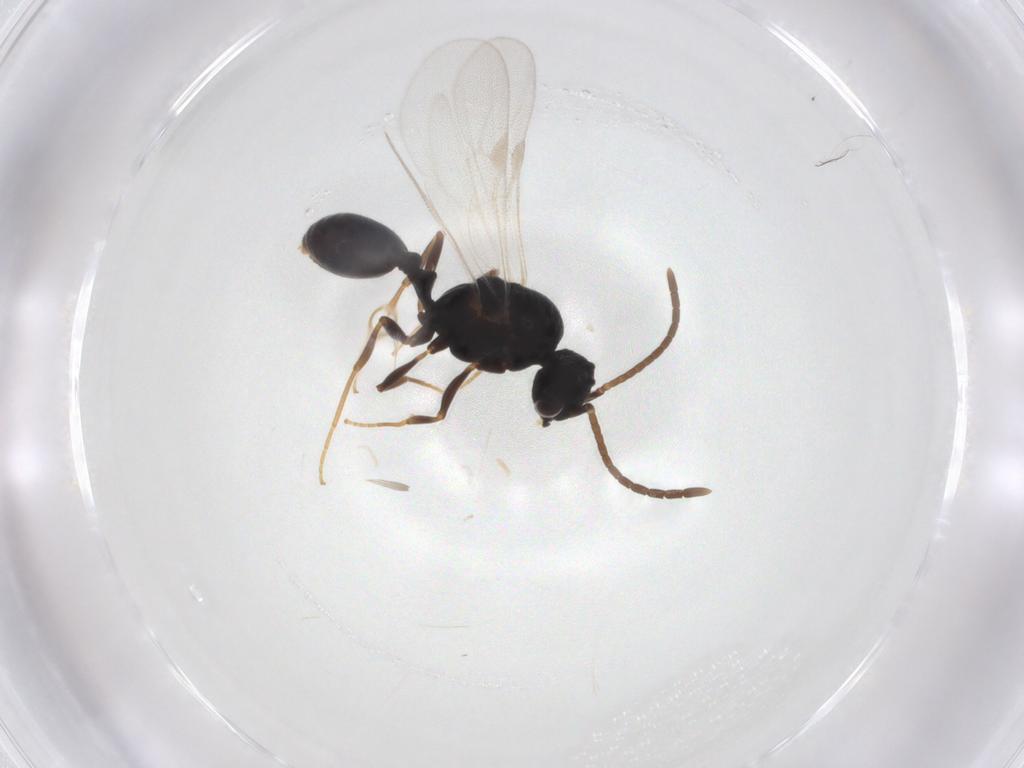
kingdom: Animalia
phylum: Arthropoda
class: Insecta
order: Hymenoptera
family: Formicidae
